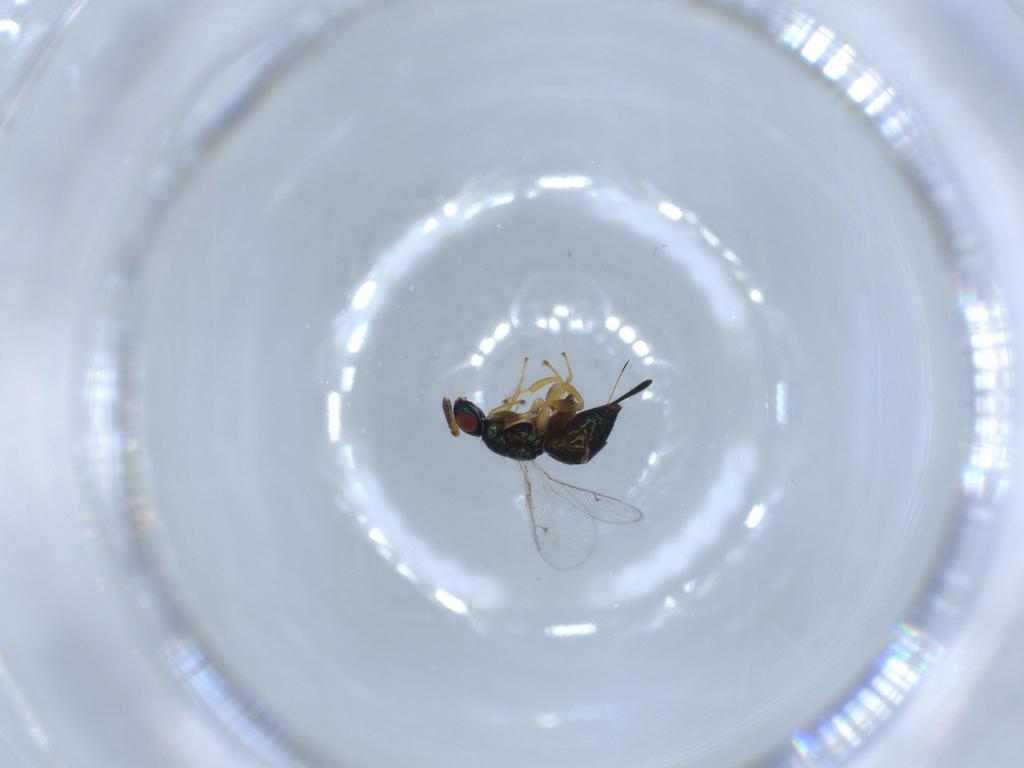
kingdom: Animalia
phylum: Arthropoda
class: Insecta
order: Hymenoptera
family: Torymidae
